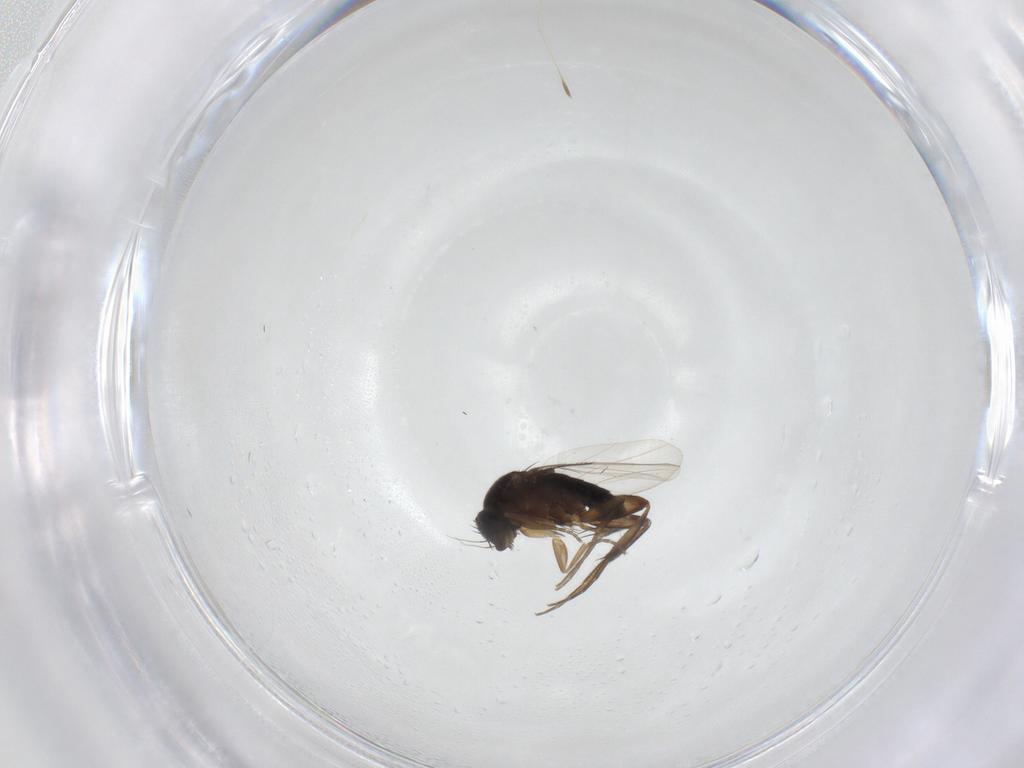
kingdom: Animalia
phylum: Arthropoda
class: Insecta
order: Diptera
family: Phoridae
